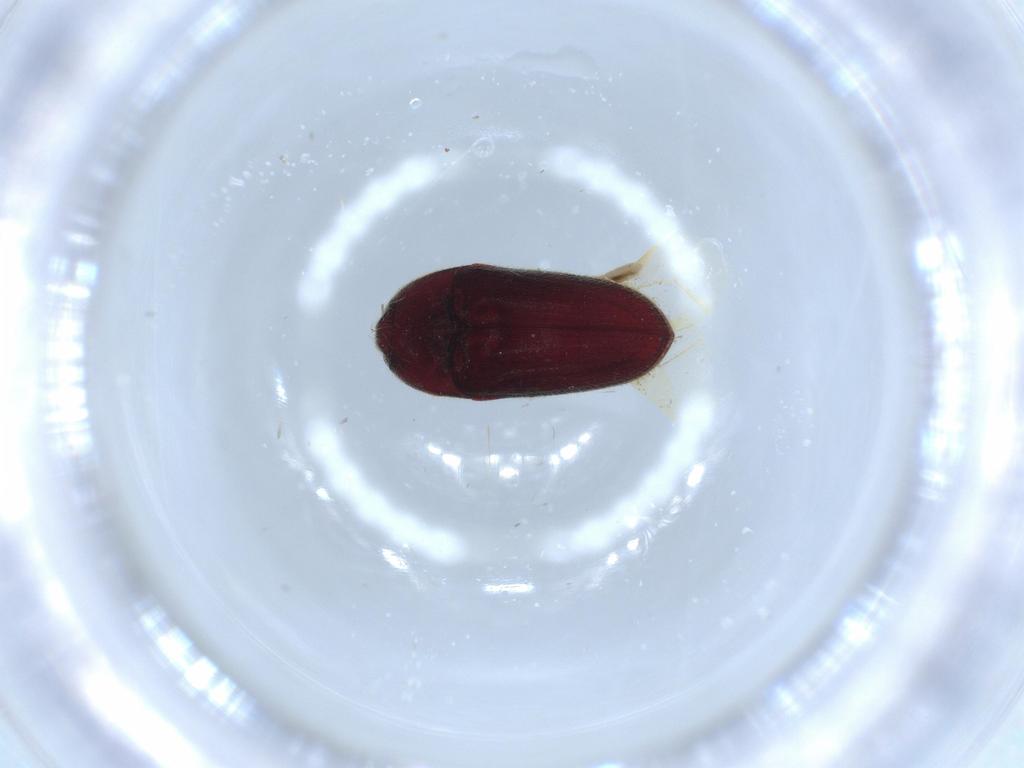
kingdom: Animalia
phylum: Arthropoda
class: Insecta
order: Coleoptera
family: Throscidae
